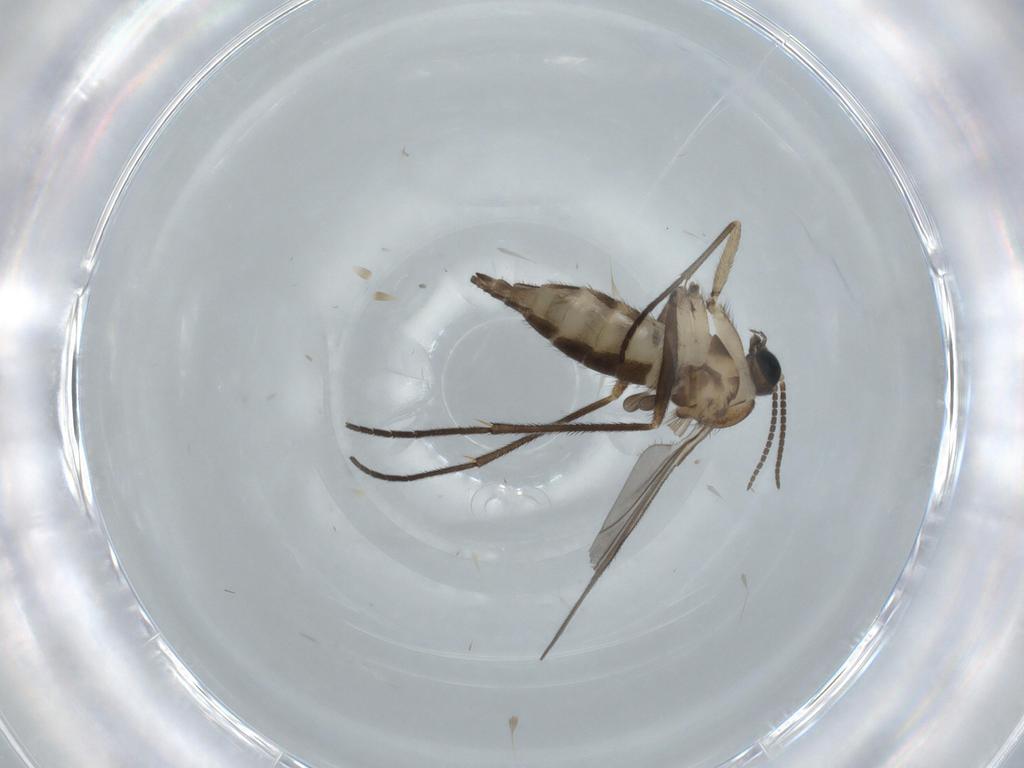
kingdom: Animalia
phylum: Arthropoda
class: Insecta
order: Diptera
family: Sciaridae
